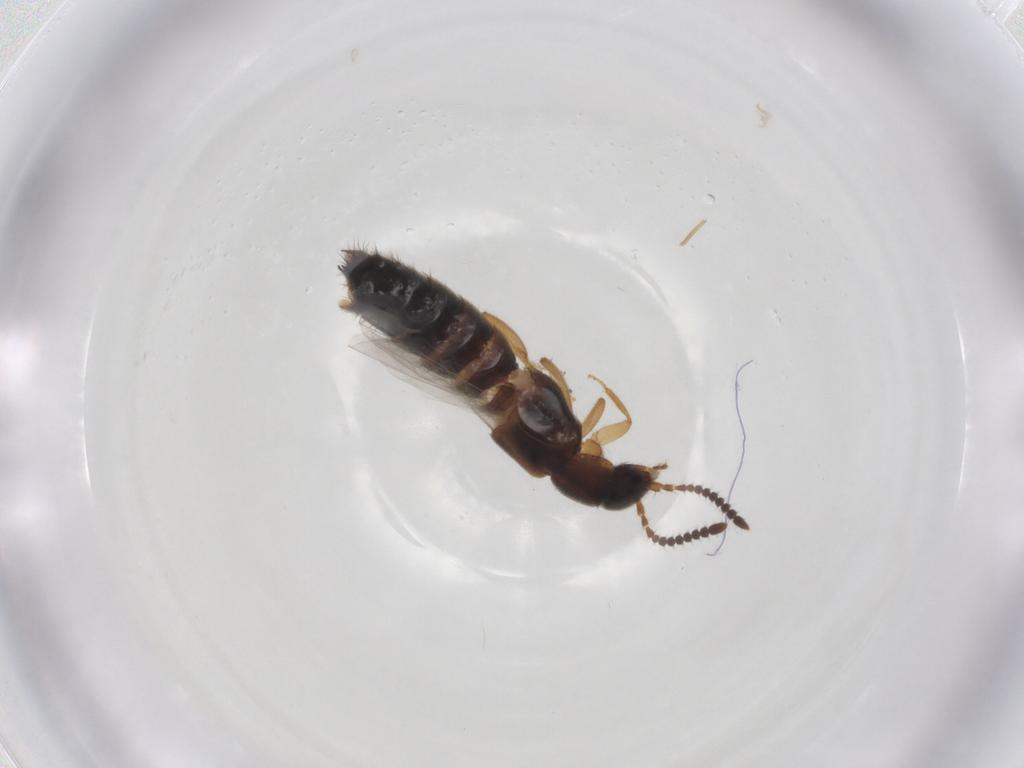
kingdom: Animalia
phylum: Arthropoda
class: Insecta
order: Coleoptera
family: Staphylinidae
